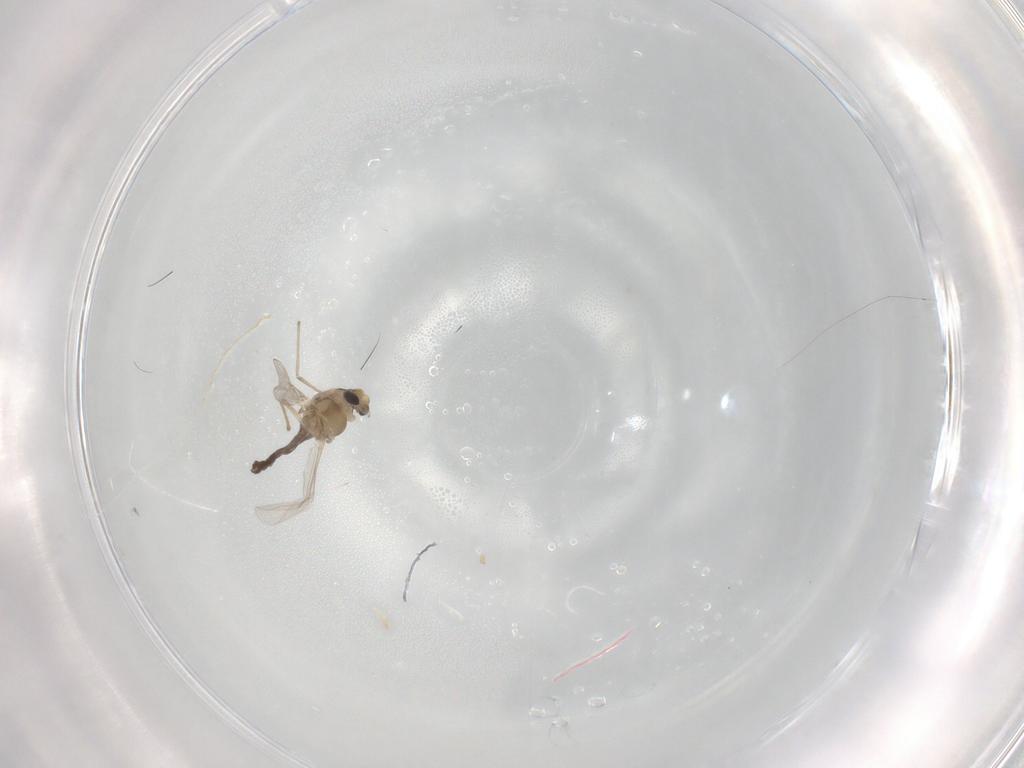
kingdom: Animalia
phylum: Arthropoda
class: Insecta
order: Diptera
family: Chironomidae
